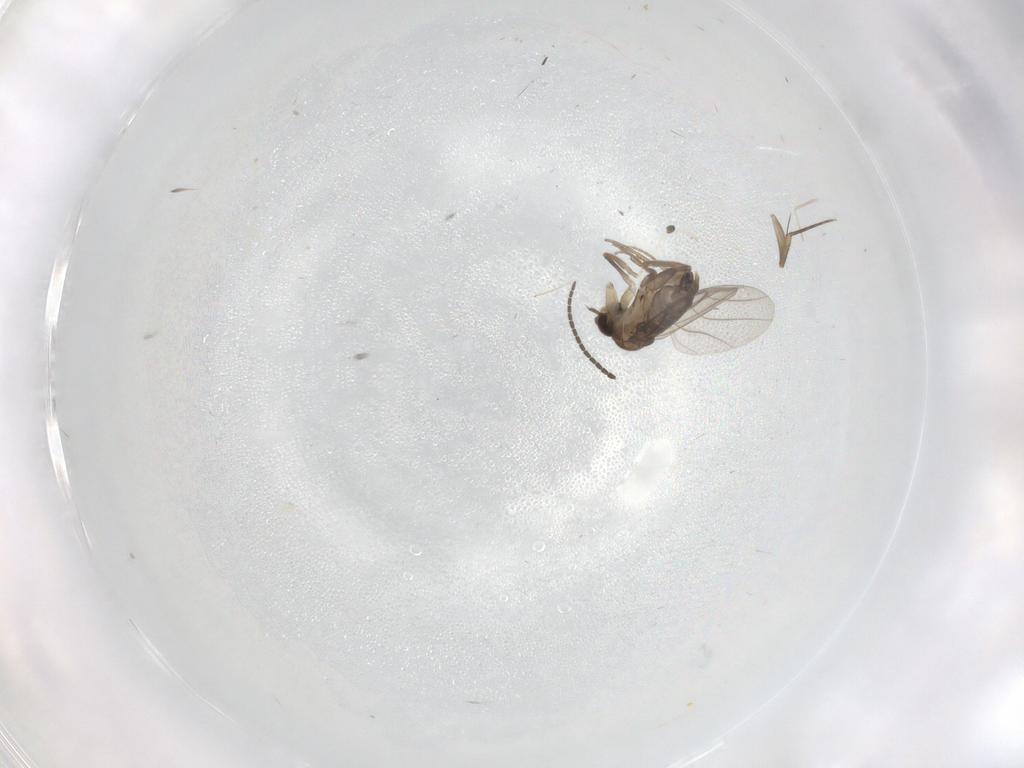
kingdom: Animalia
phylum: Arthropoda
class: Insecta
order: Diptera
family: Phoridae
